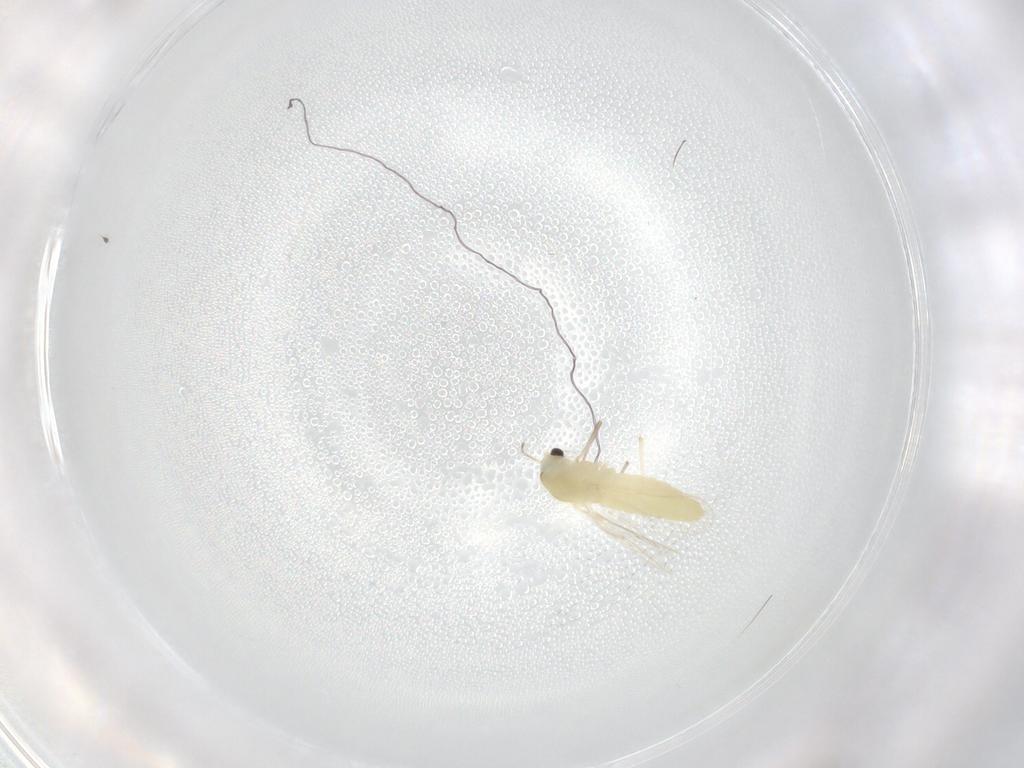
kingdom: Animalia
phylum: Arthropoda
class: Insecta
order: Diptera
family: Chironomidae
